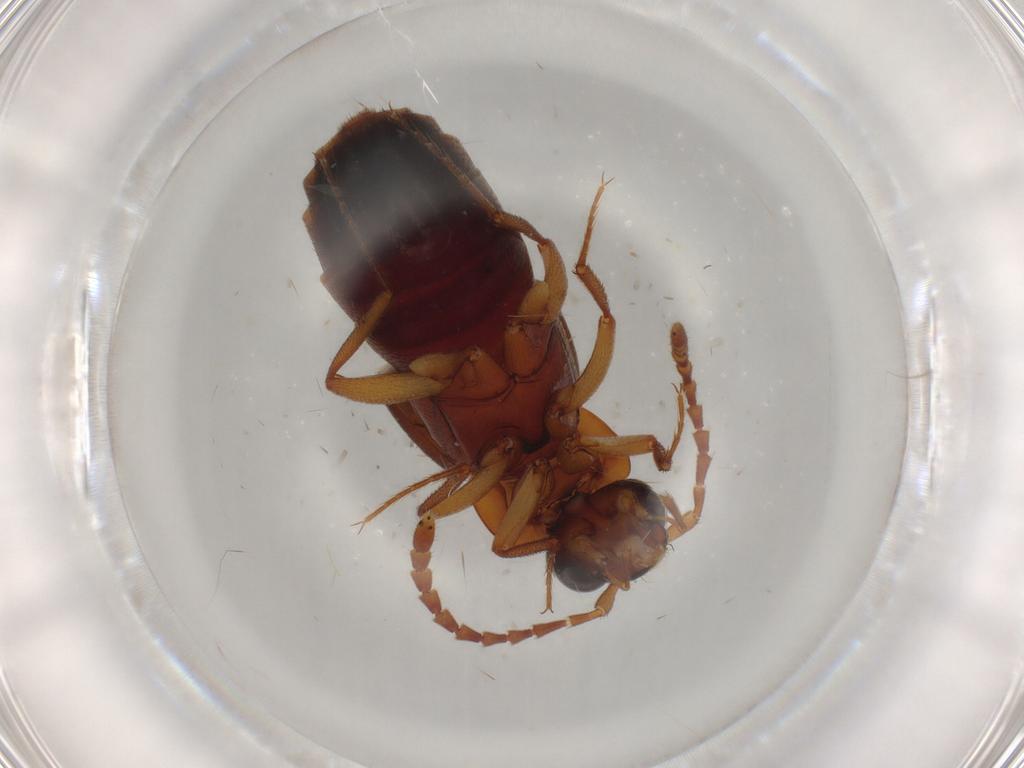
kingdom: Animalia
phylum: Arthropoda
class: Insecta
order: Coleoptera
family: Staphylinidae
